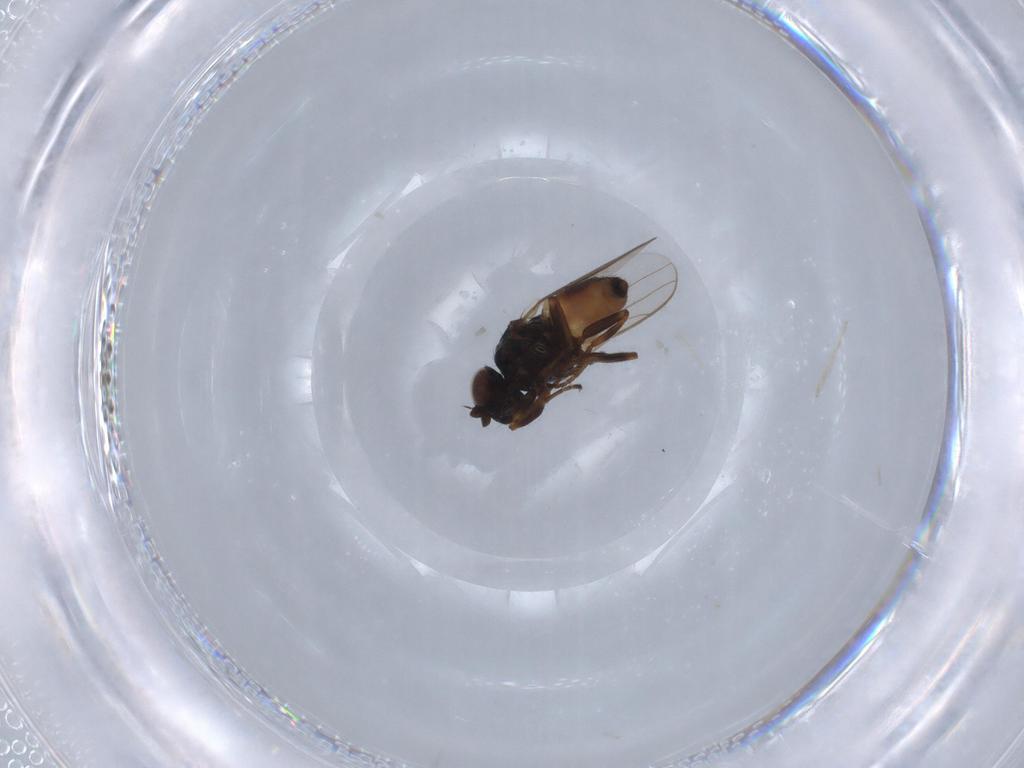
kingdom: Animalia
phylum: Arthropoda
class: Insecta
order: Diptera
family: Chloropidae
